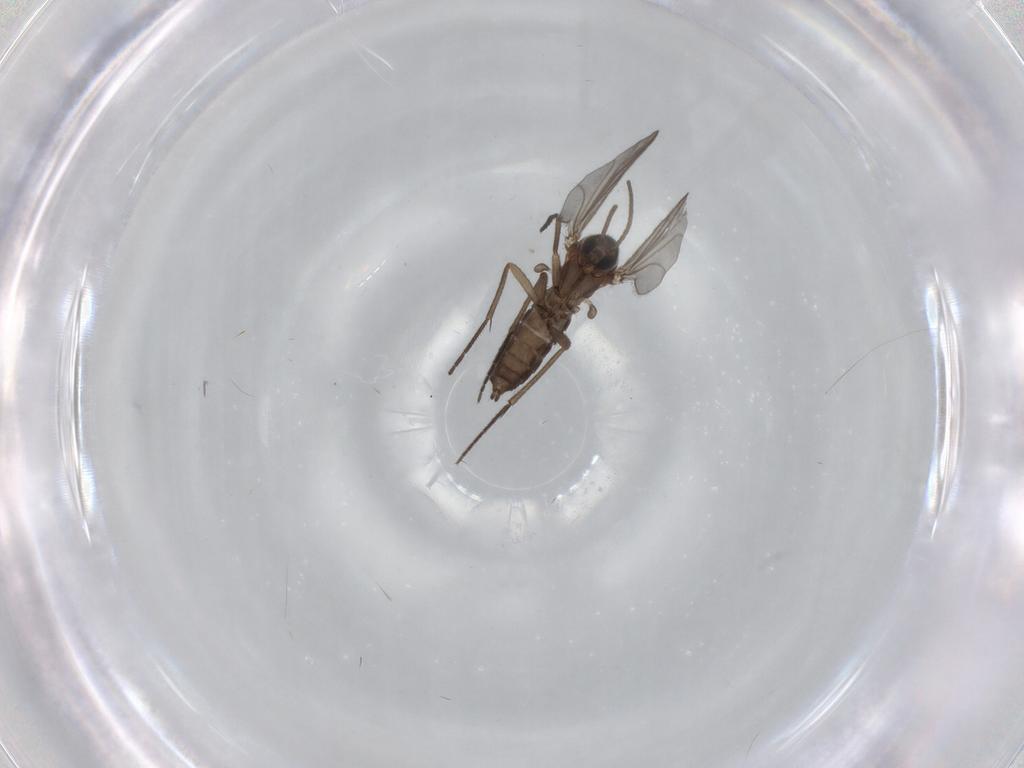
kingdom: Animalia
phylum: Arthropoda
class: Insecta
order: Diptera
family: Sciaridae
